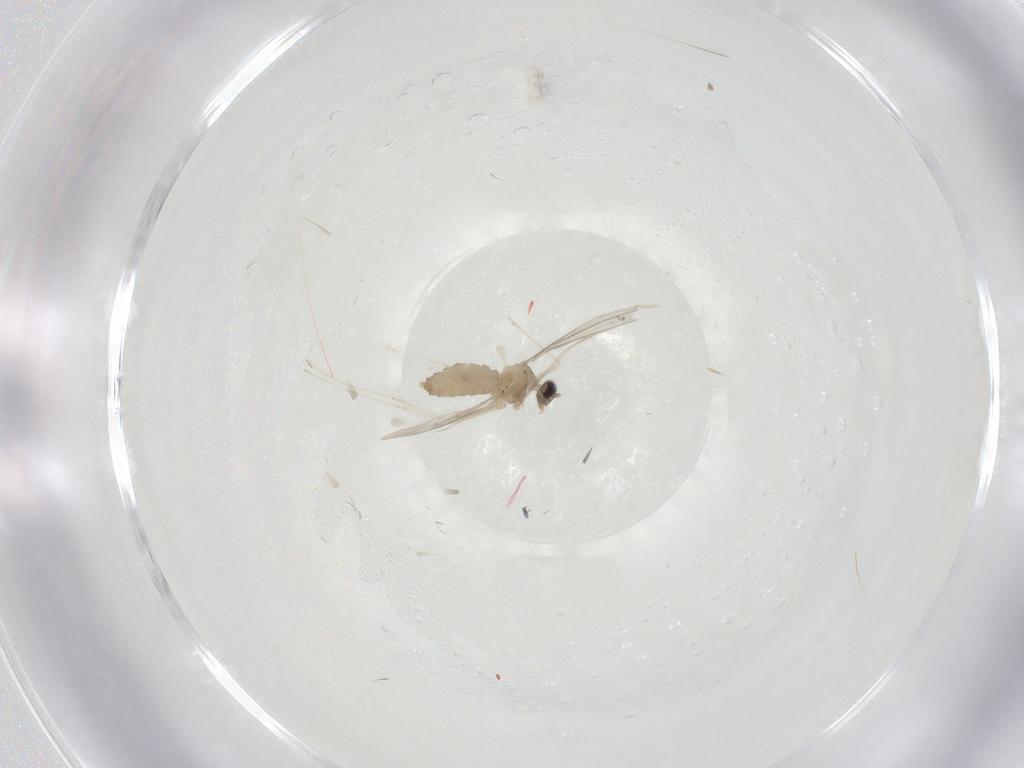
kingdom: Animalia
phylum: Arthropoda
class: Insecta
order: Diptera
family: Cecidomyiidae
